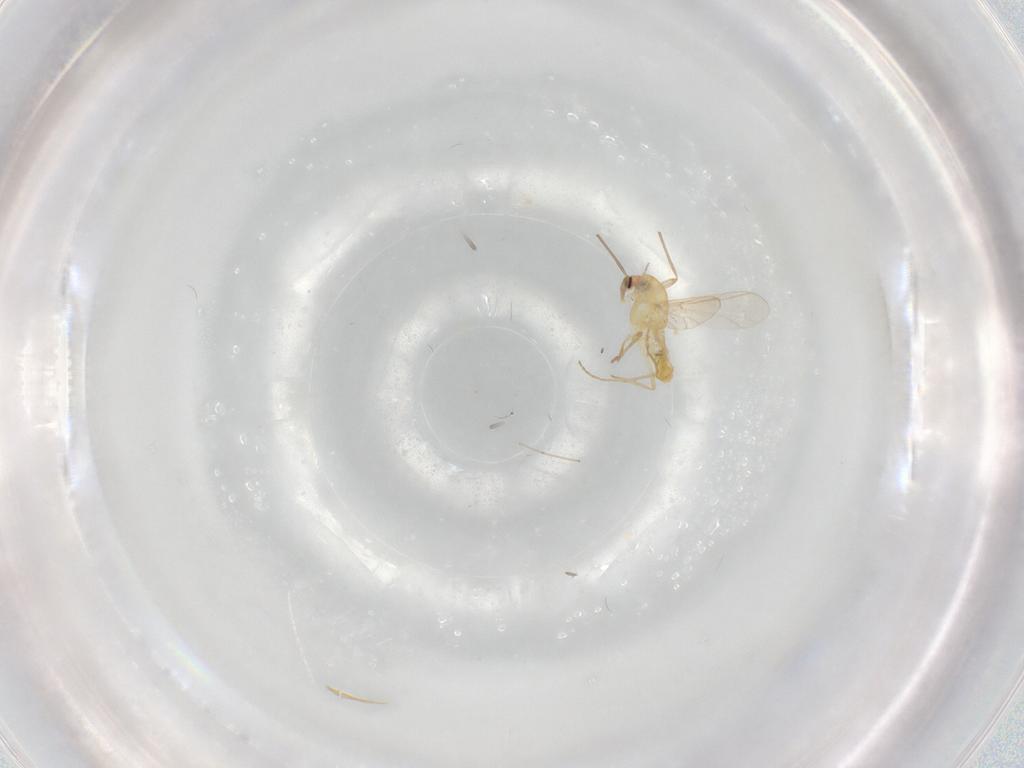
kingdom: Animalia
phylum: Arthropoda
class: Insecta
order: Diptera
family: Chironomidae
